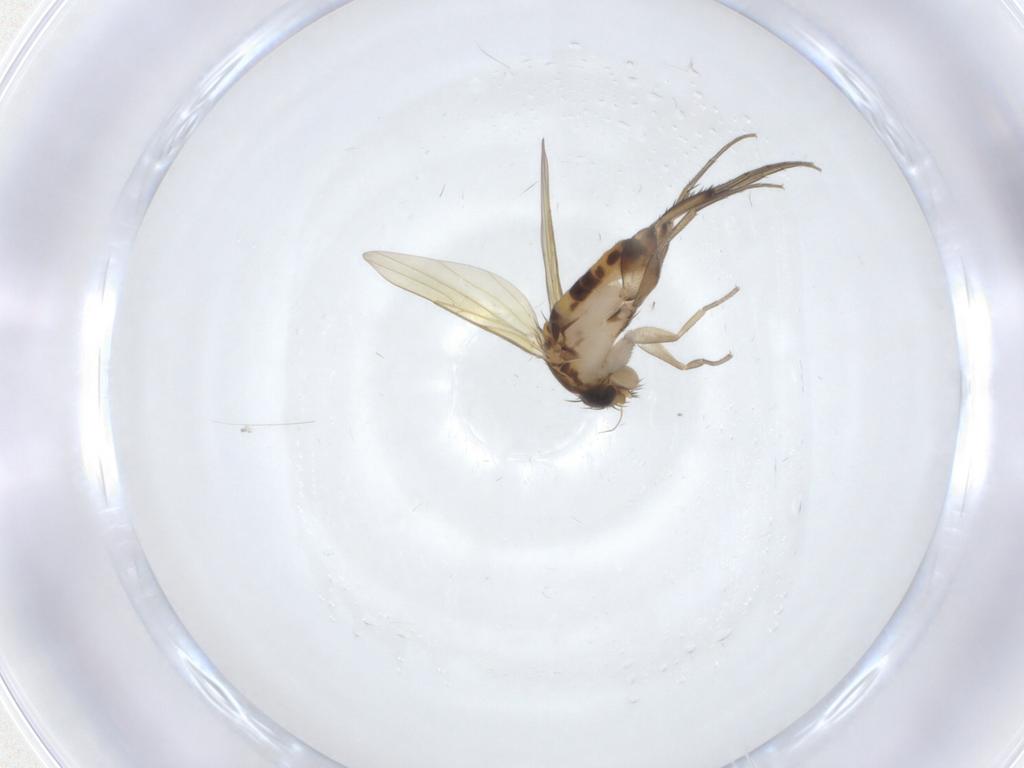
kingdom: Animalia
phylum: Arthropoda
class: Insecta
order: Diptera
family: Phoridae
